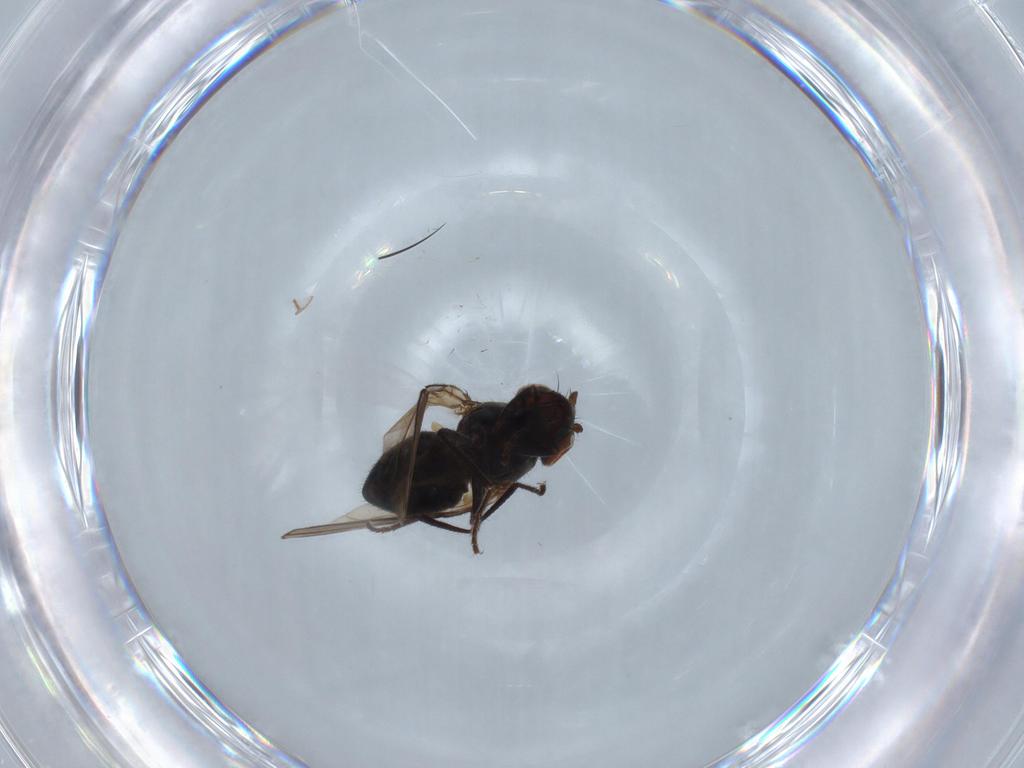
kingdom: Animalia
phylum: Arthropoda
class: Insecta
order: Diptera
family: Ephydridae
